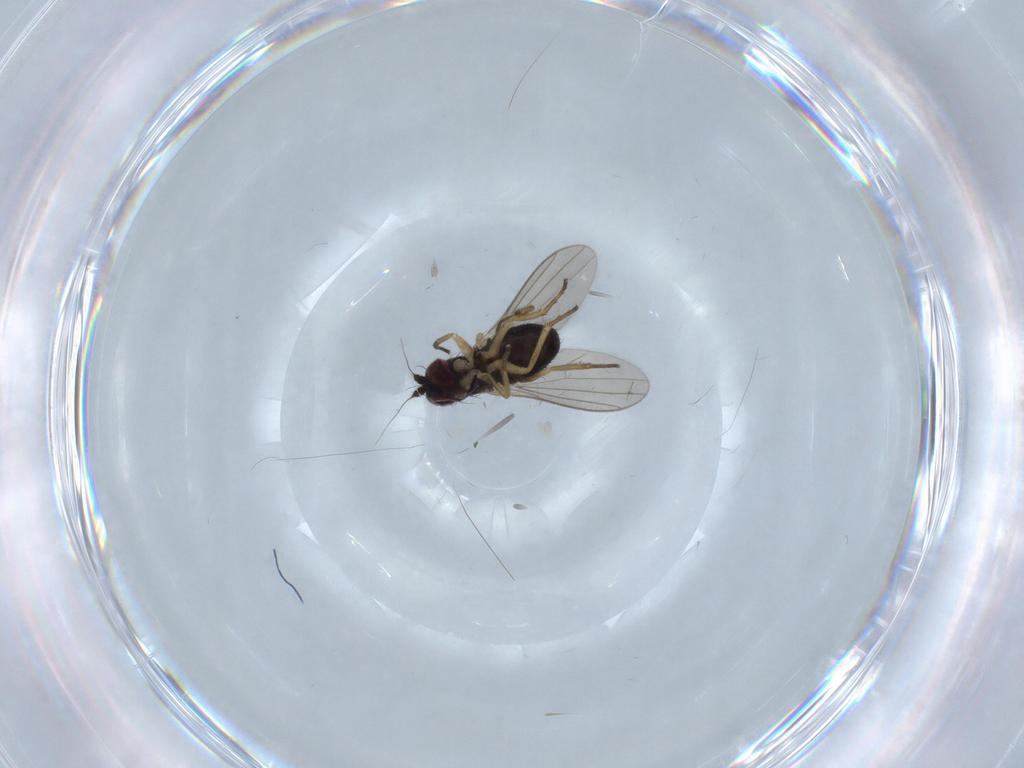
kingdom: Animalia
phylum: Arthropoda
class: Insecta
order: Diptera
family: Dolichopodidae
